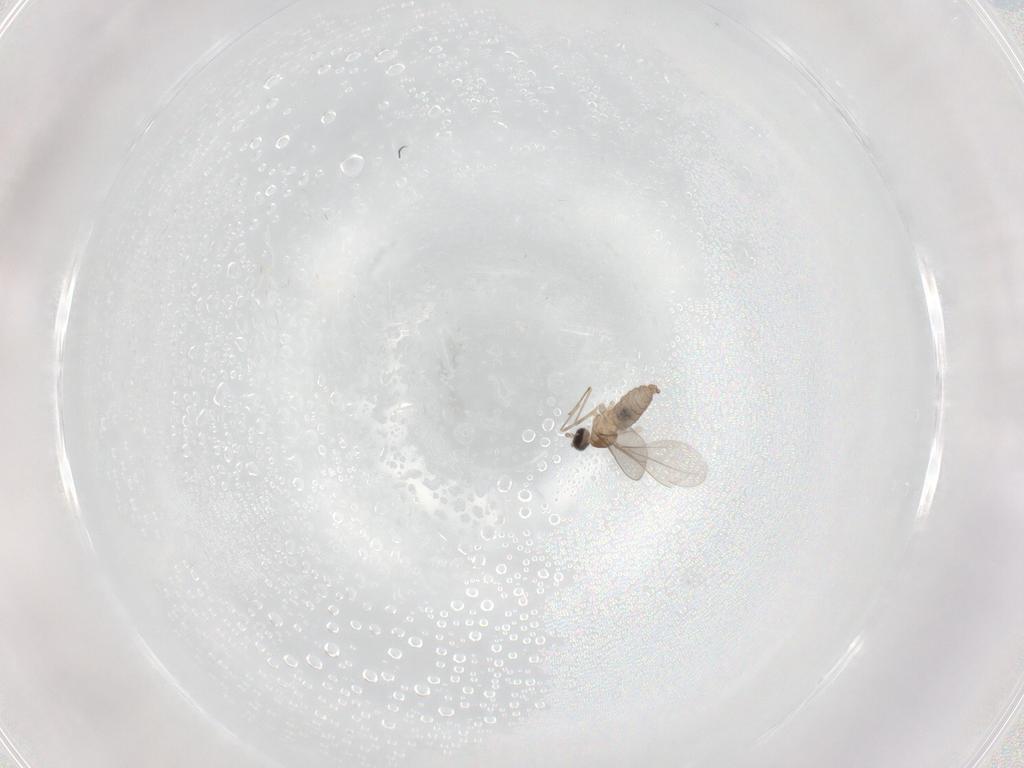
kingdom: Animalia
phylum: Arthropoda
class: Insecta
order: Diptera
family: Cecidomyiidae
